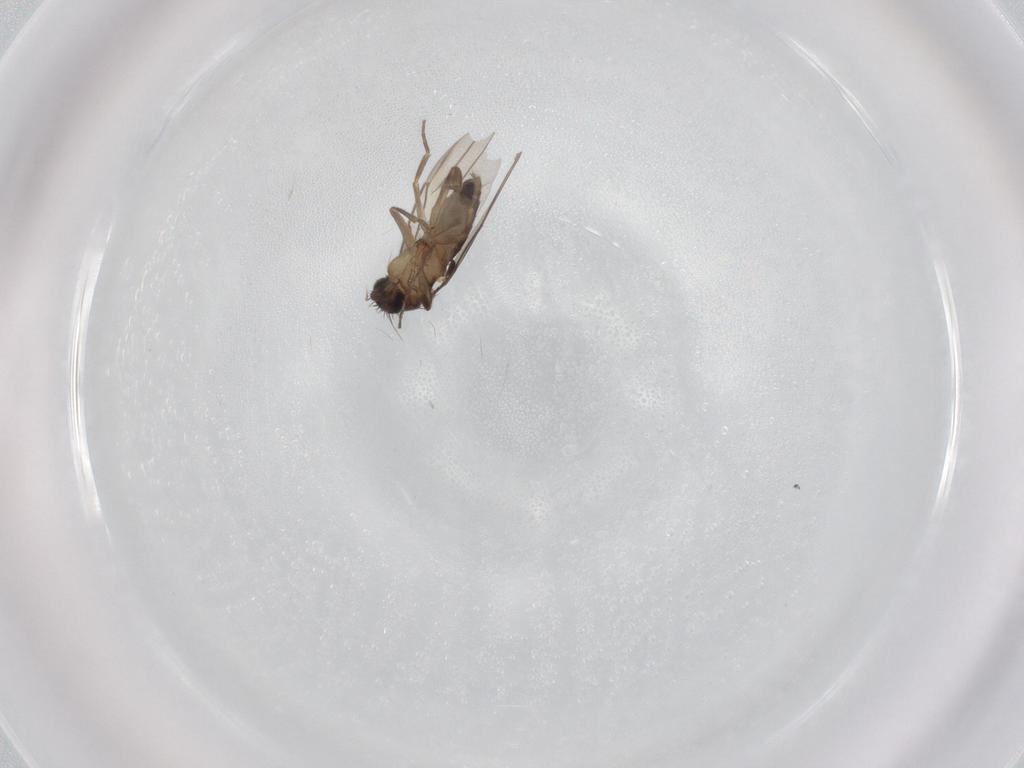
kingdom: Animalia
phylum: Arthropoda
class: Insecta
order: Diptera
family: Phoridae
